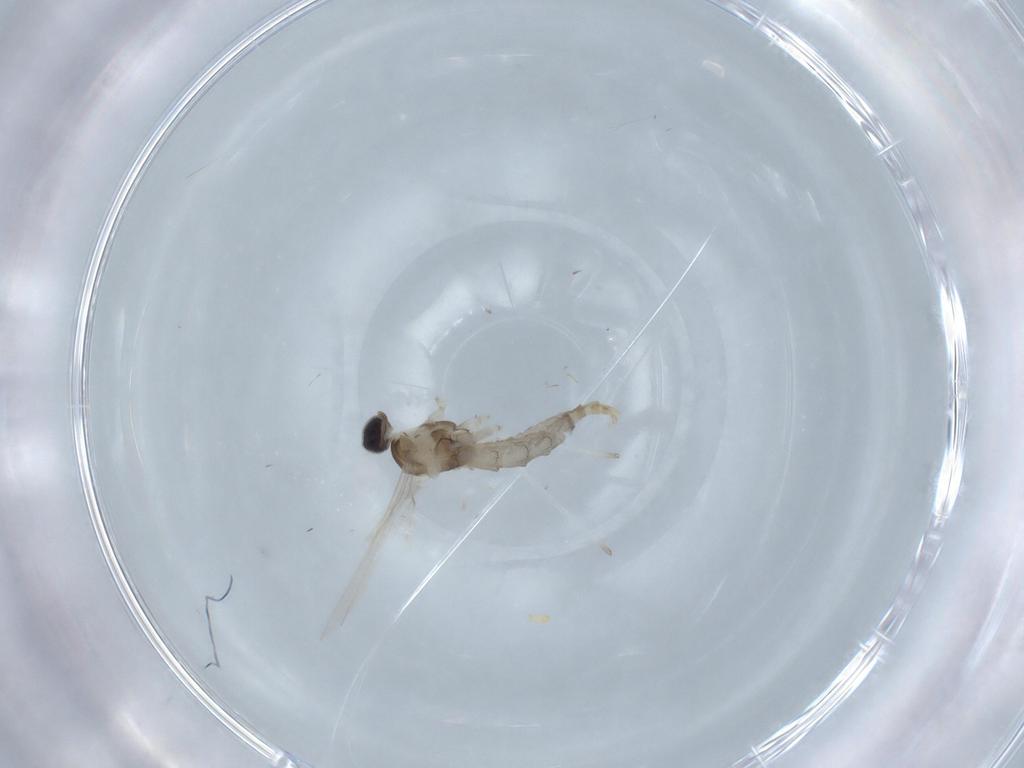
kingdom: Animalia
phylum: Arthropoda
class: Insecta
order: Diptera
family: Cecidomyiidae
